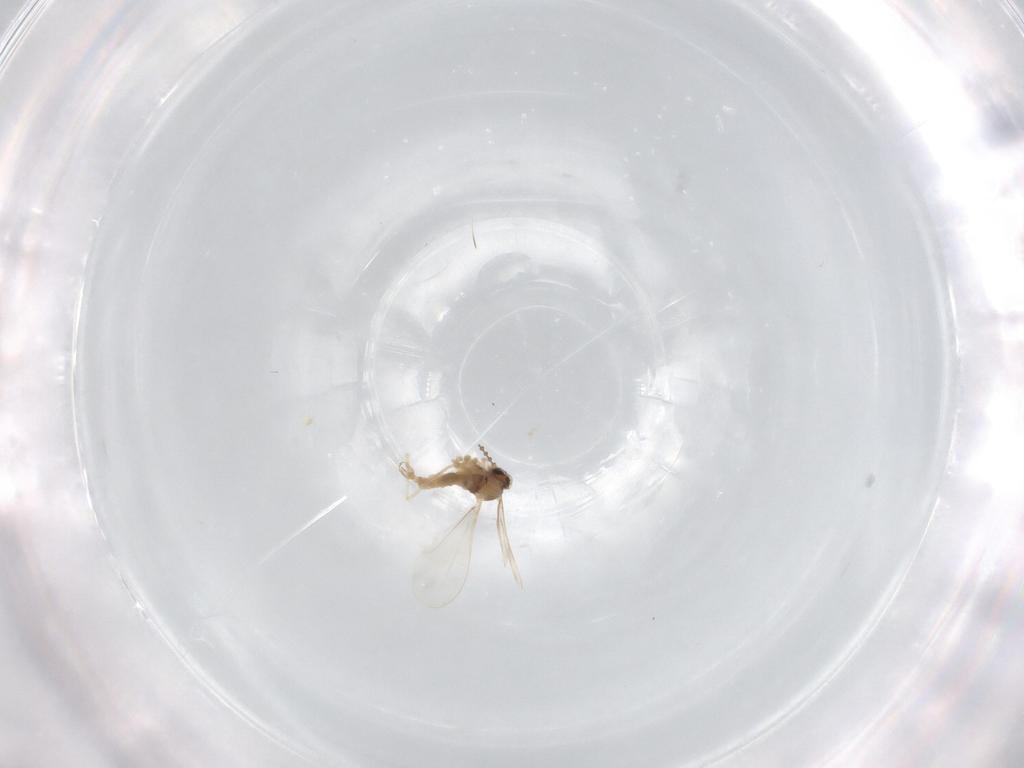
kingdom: Animalia
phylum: Arthropoda
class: Insecta
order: Diptera
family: Cecidomyiidae
